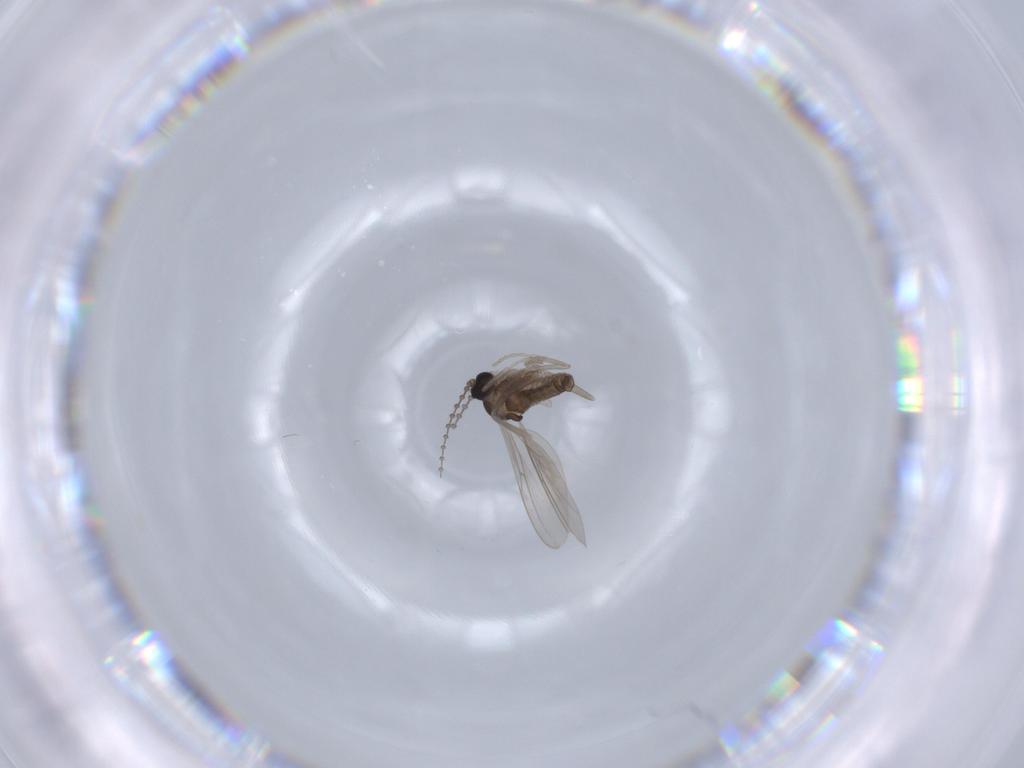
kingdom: Animalia
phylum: Arthropoda
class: Insecta
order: Diptera
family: Cecidomyiidae
